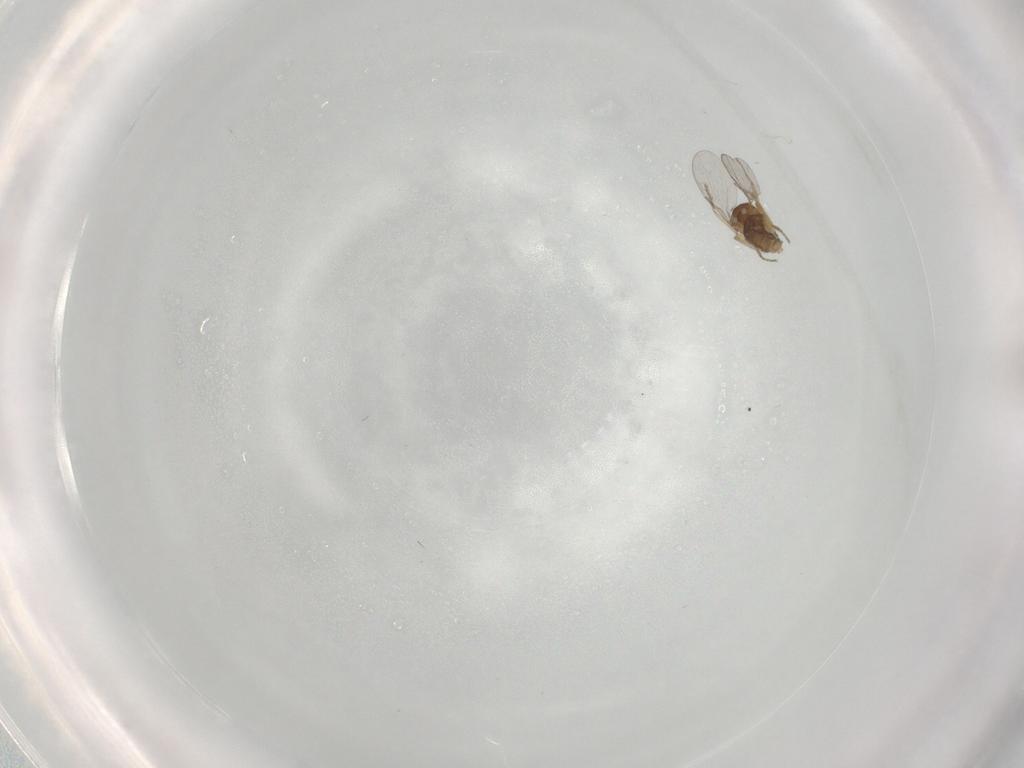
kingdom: Animalia
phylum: Arthropoda
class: Insecta
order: Diptera
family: Ceratopogonidae
